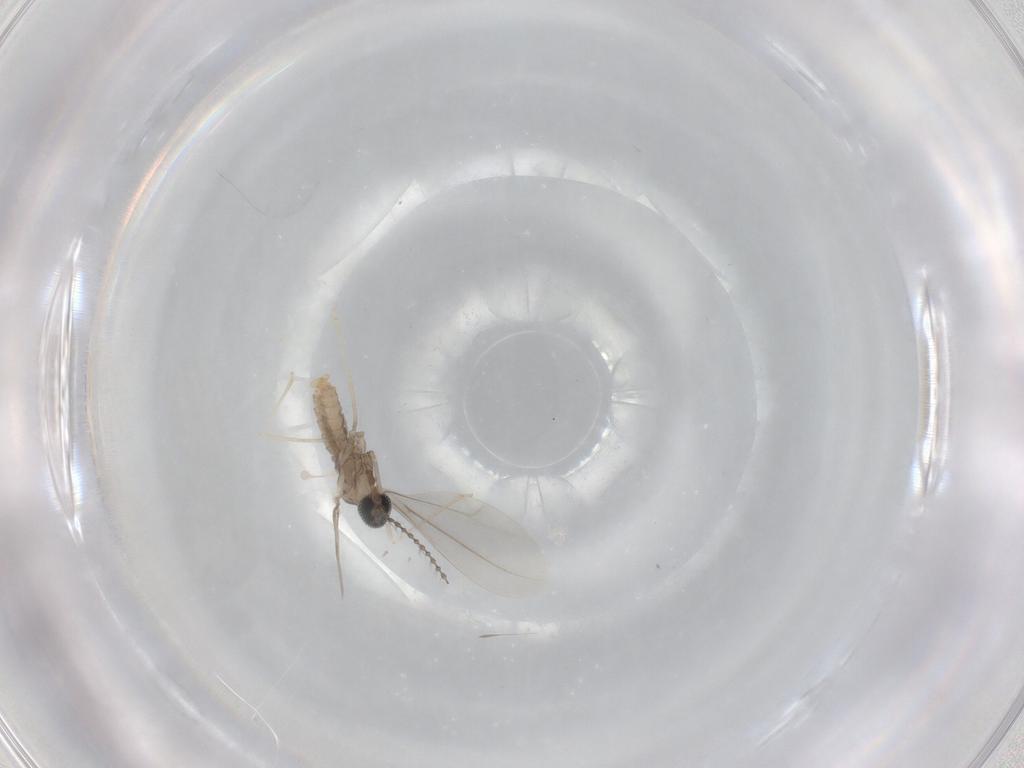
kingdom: Animalia
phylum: Arthropoda
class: Insecta
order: Diptera
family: Cecidomyiidae
